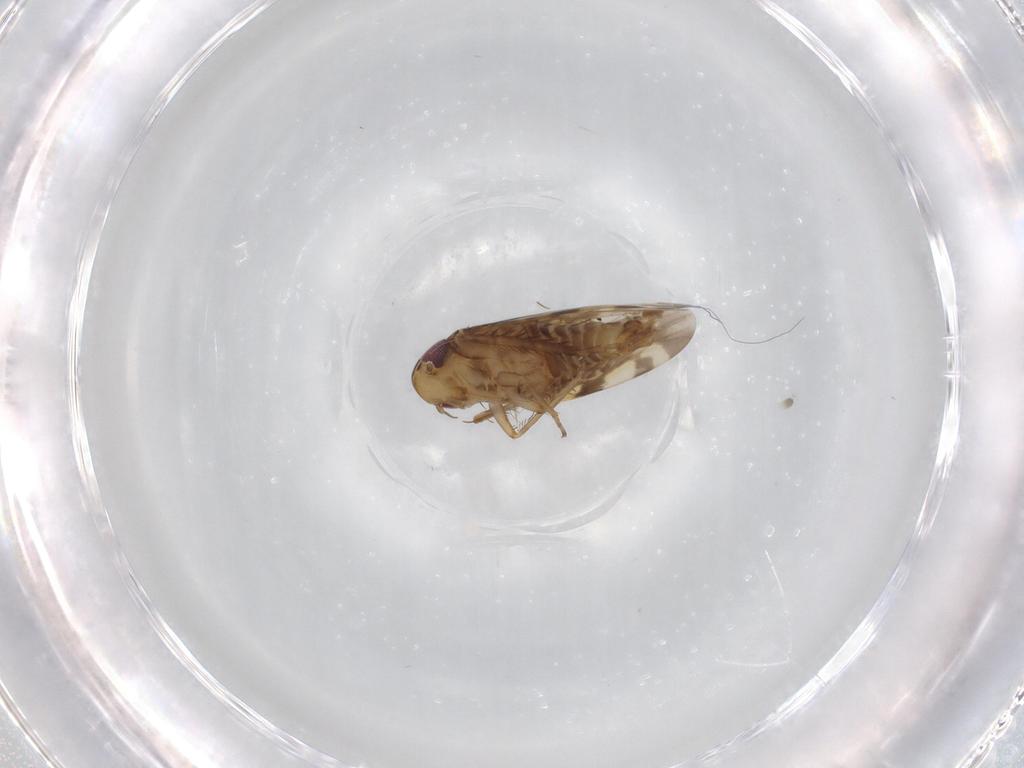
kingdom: Animalia
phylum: Arthropoda
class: Insecta
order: Hemiptera
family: Cicadellidae
